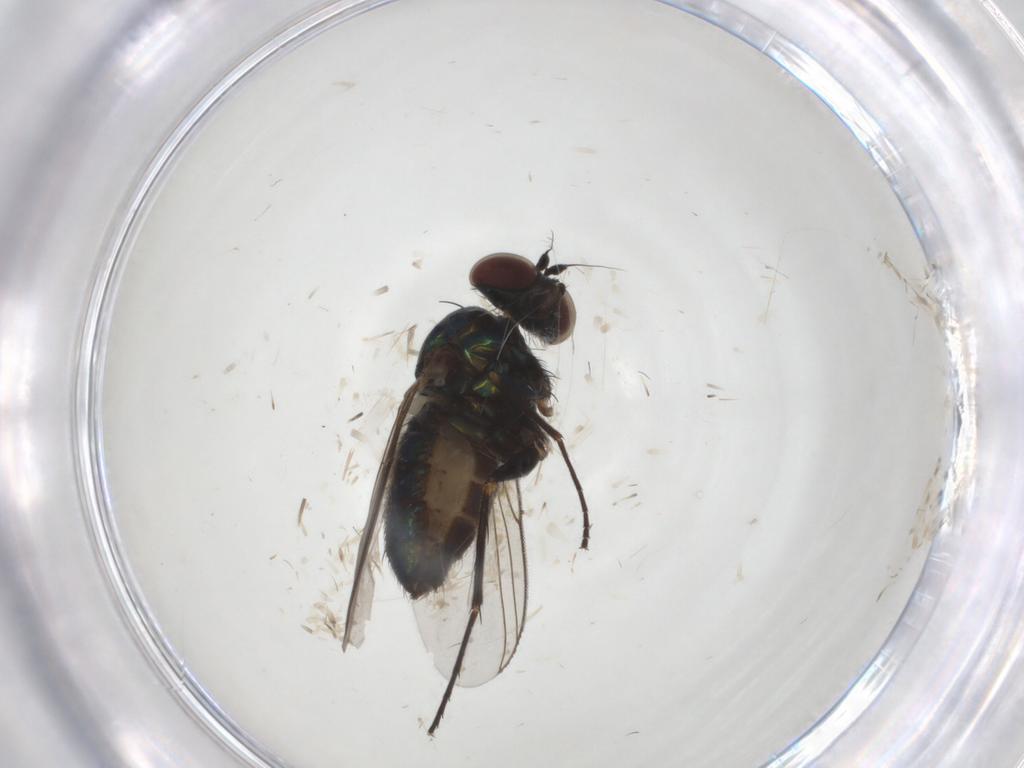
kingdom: Animalia
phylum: Arthropoda
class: Insecta
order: Diptera
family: Dolichopodidae
